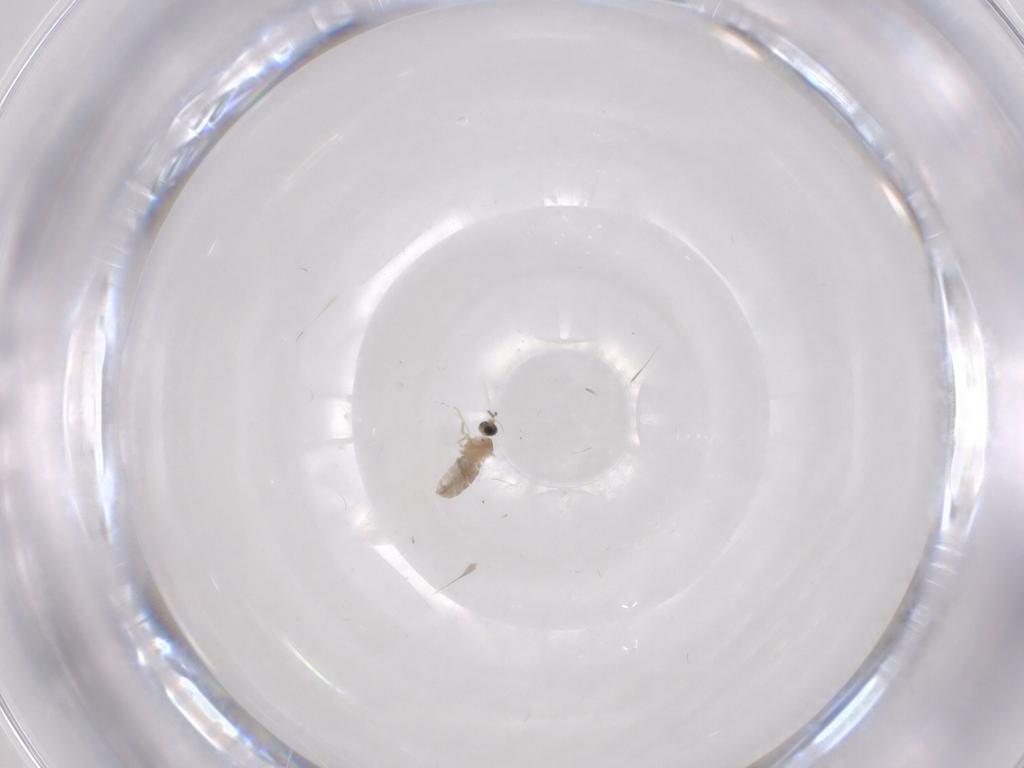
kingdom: Animalia
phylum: Arthropoda
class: Insecta
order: Diptera
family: Cecidomyiidae
